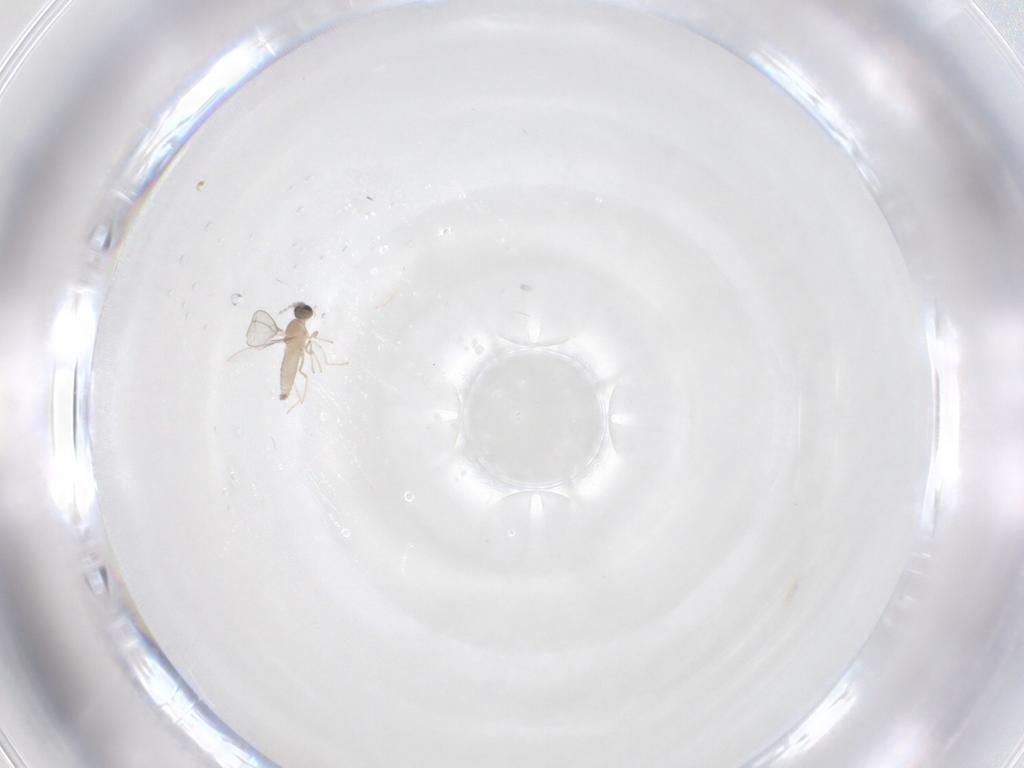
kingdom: Animalia
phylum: Arthropoda
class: Insecta
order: Diptera
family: Cecidomyiidae
